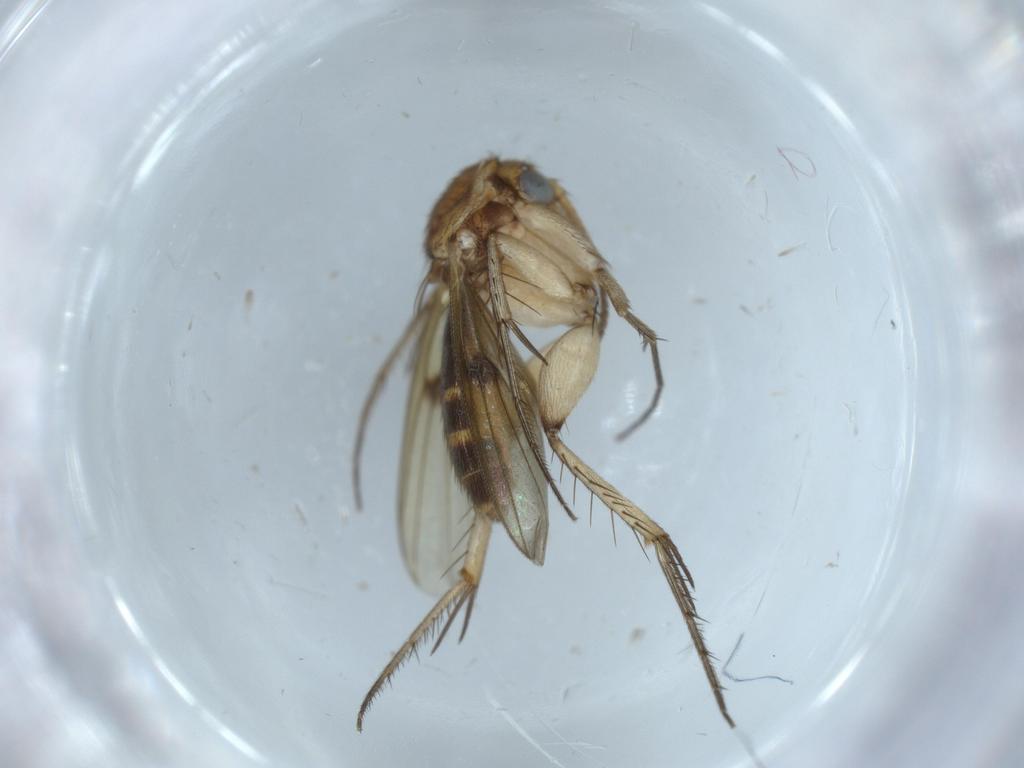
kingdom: Animalia
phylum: Arthropoda
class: Insecta
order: Diptera
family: Mycetophilidae
